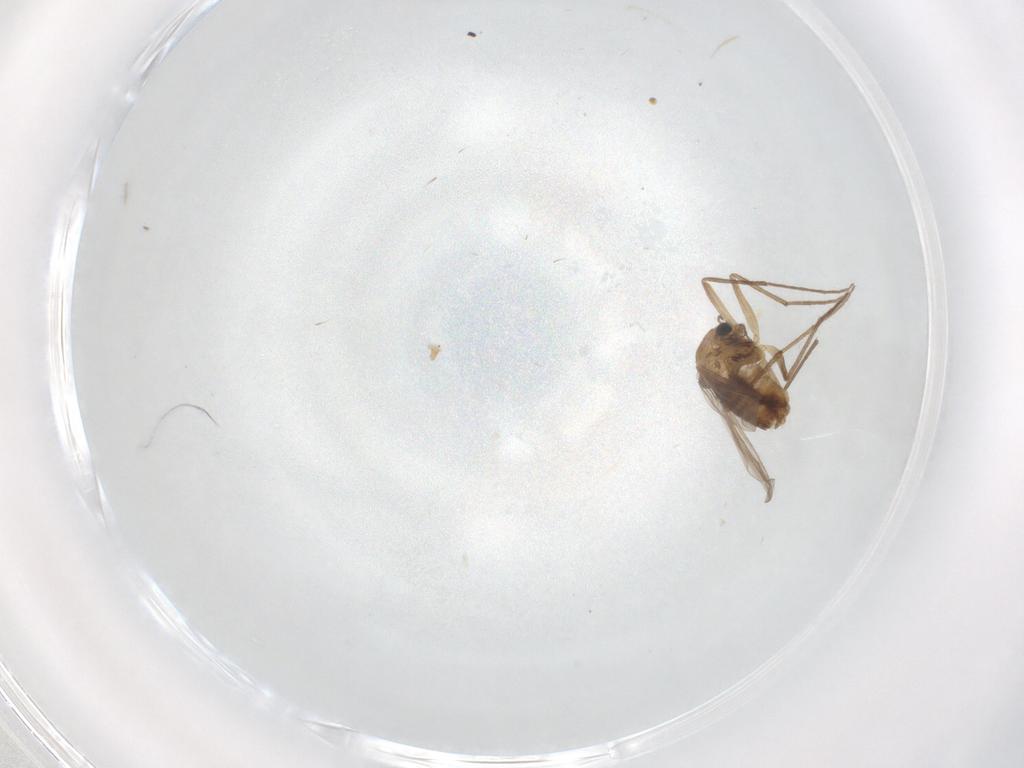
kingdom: Animalia
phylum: Arthropoda
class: Insecta
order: Diptera
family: Chironomidae
